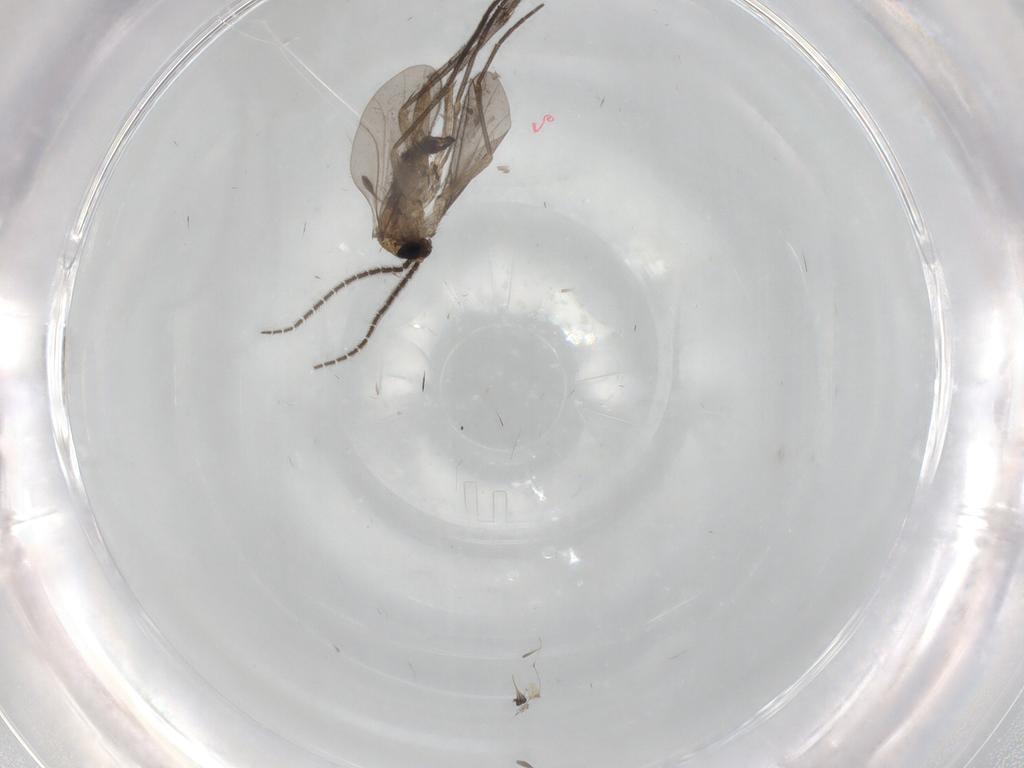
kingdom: Animalia
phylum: Arthropoda
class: Insecta
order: Diptera
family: Sciaridae
